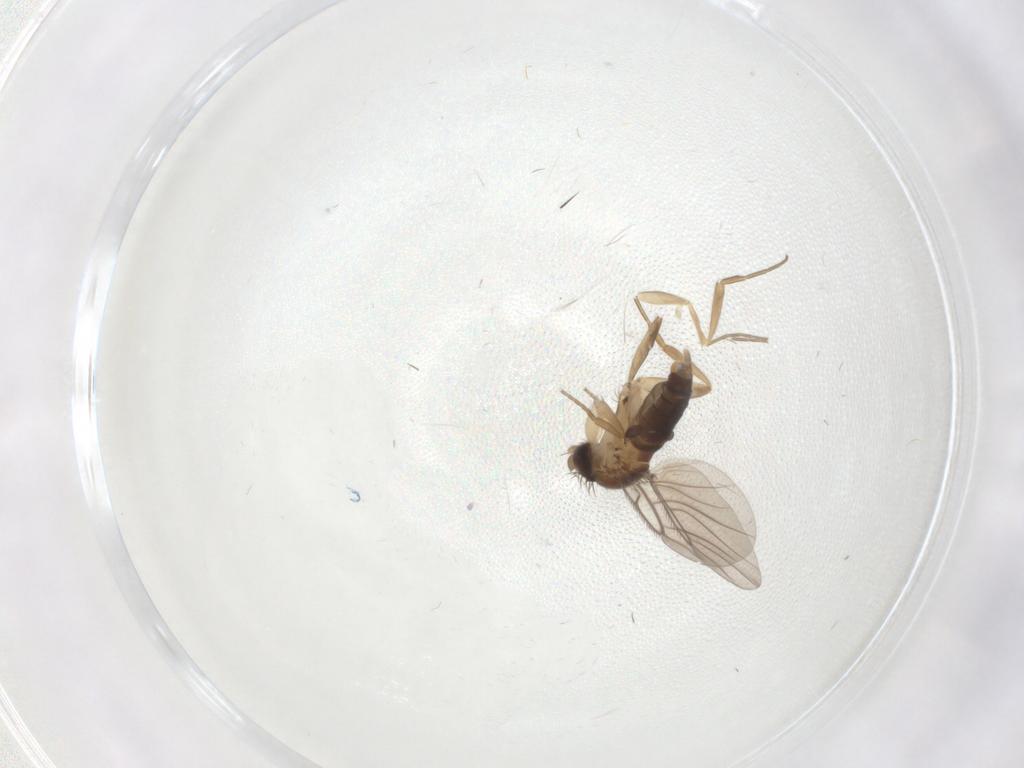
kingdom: Animalia
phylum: Arthropoda
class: Insecta
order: Diptera
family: Phoridae
